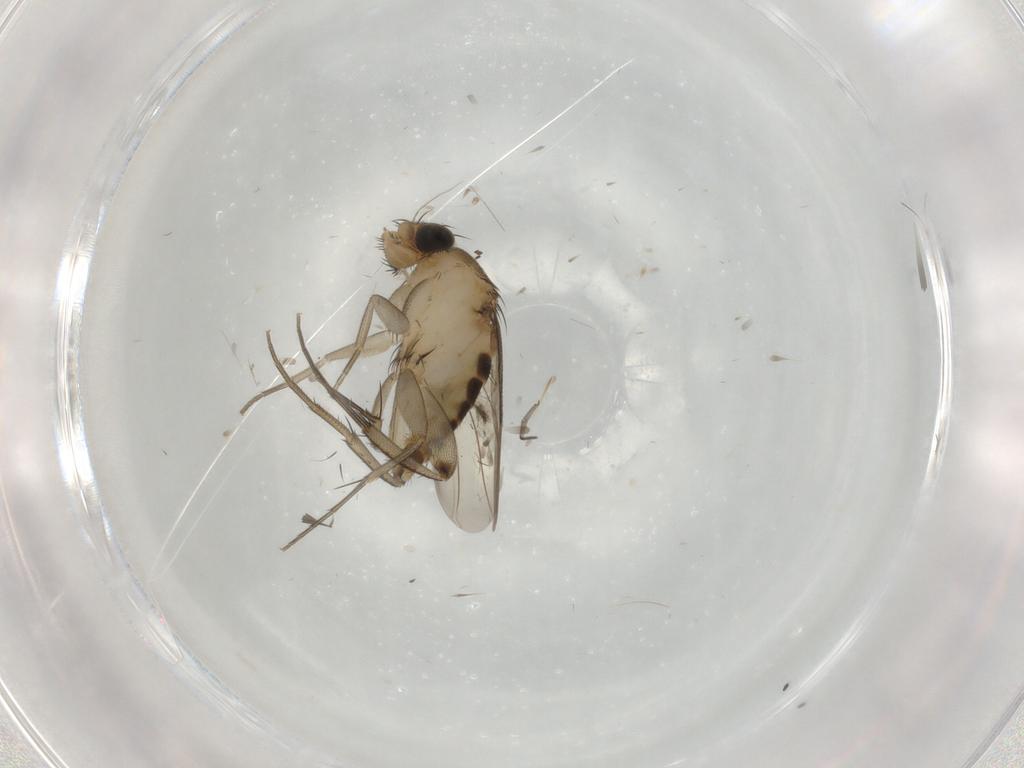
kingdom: Animalia
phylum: Arthropoda
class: Insecta
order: Diptera
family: Phoridae
